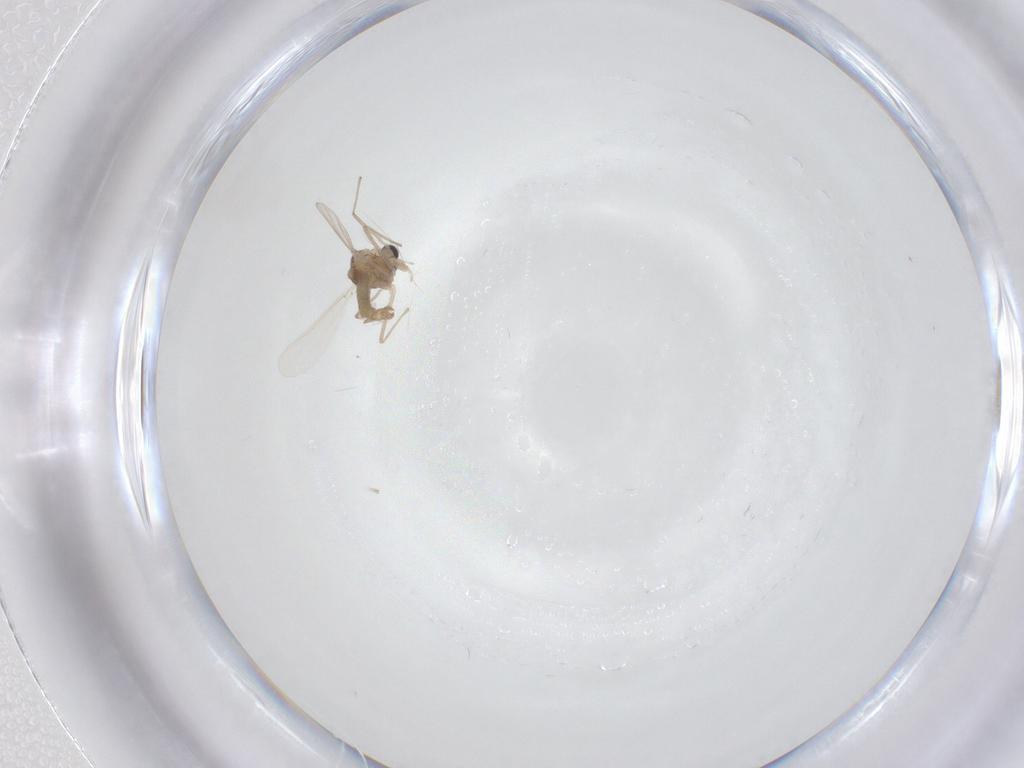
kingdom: Animalia
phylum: Arthropoda
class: Insecta
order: Diptera
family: Chironomidae
